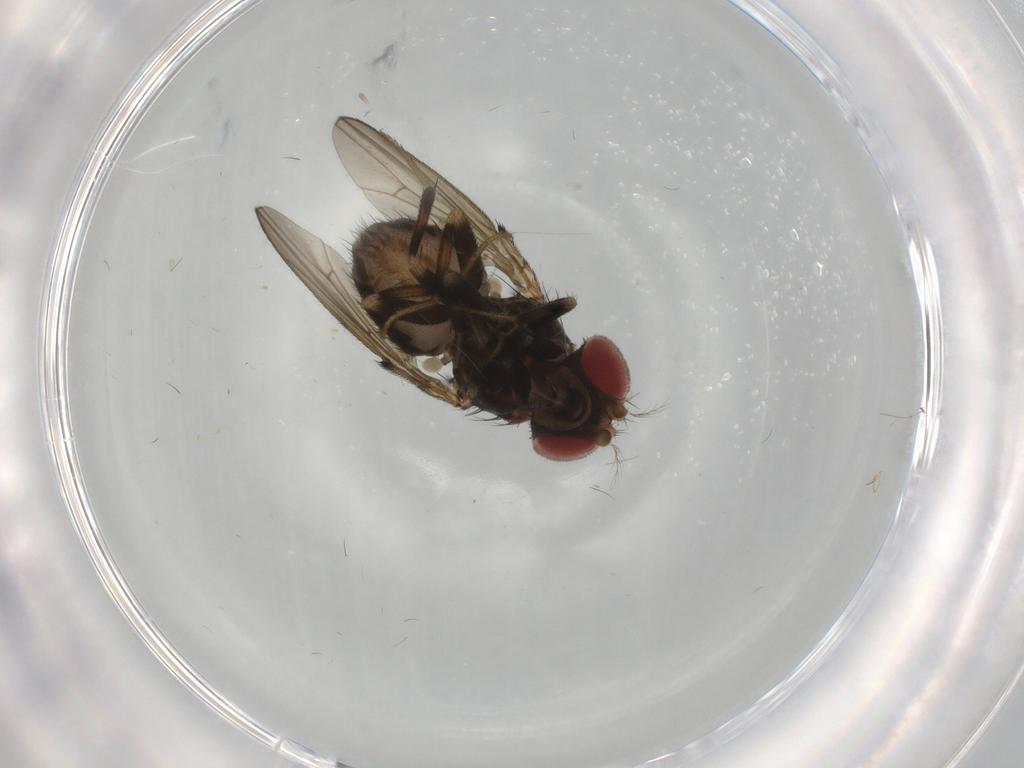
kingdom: Animalia
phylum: Arthropoda
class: Insecta
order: Diptera
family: Drosophilidae
